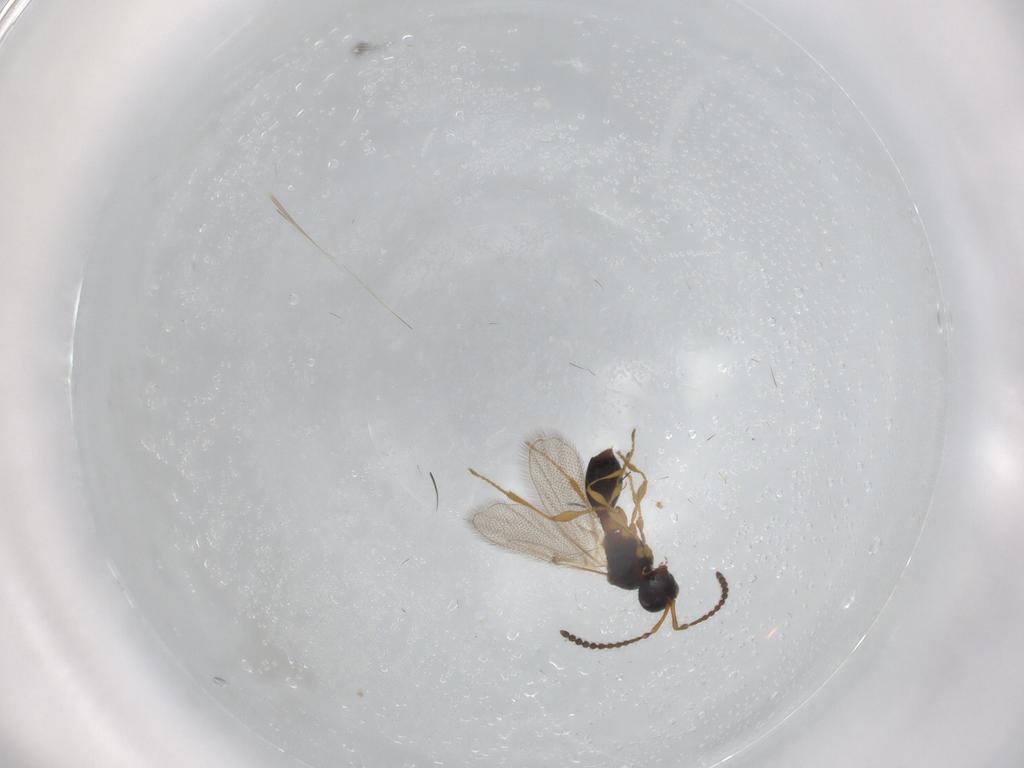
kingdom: Animalia
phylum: Arthropoda
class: Insecta
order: Hymenoptera
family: Diapriidae
